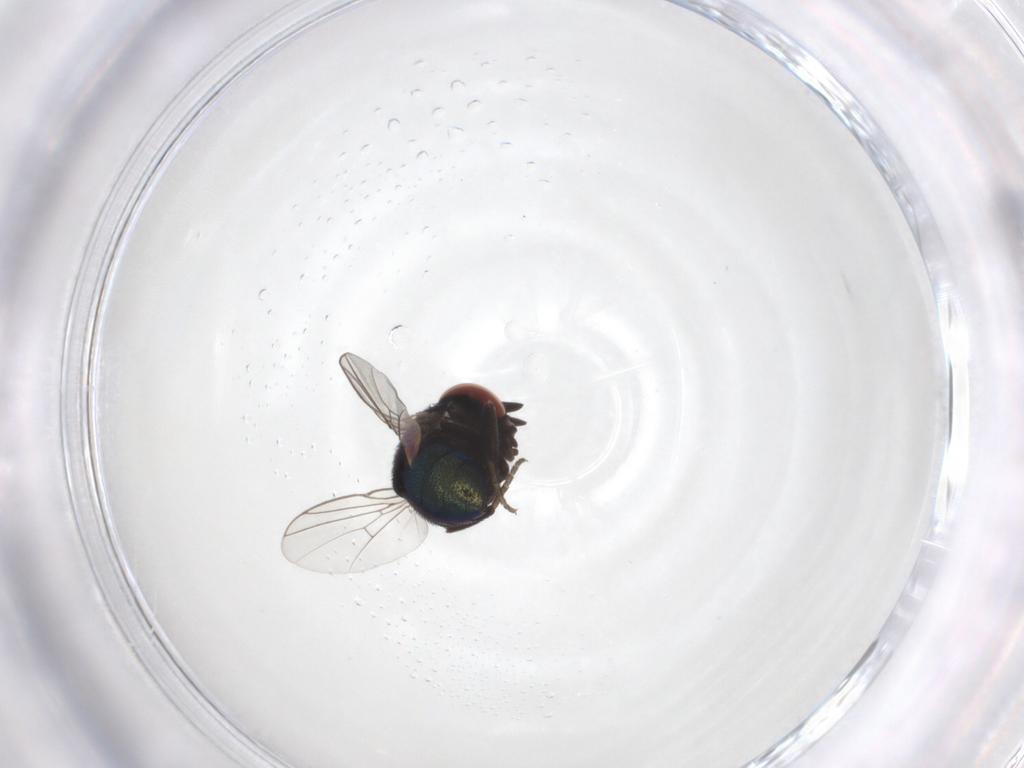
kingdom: Animalia
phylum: Arthropoda
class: Insecta
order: Diptera
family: Cryptochetidae
